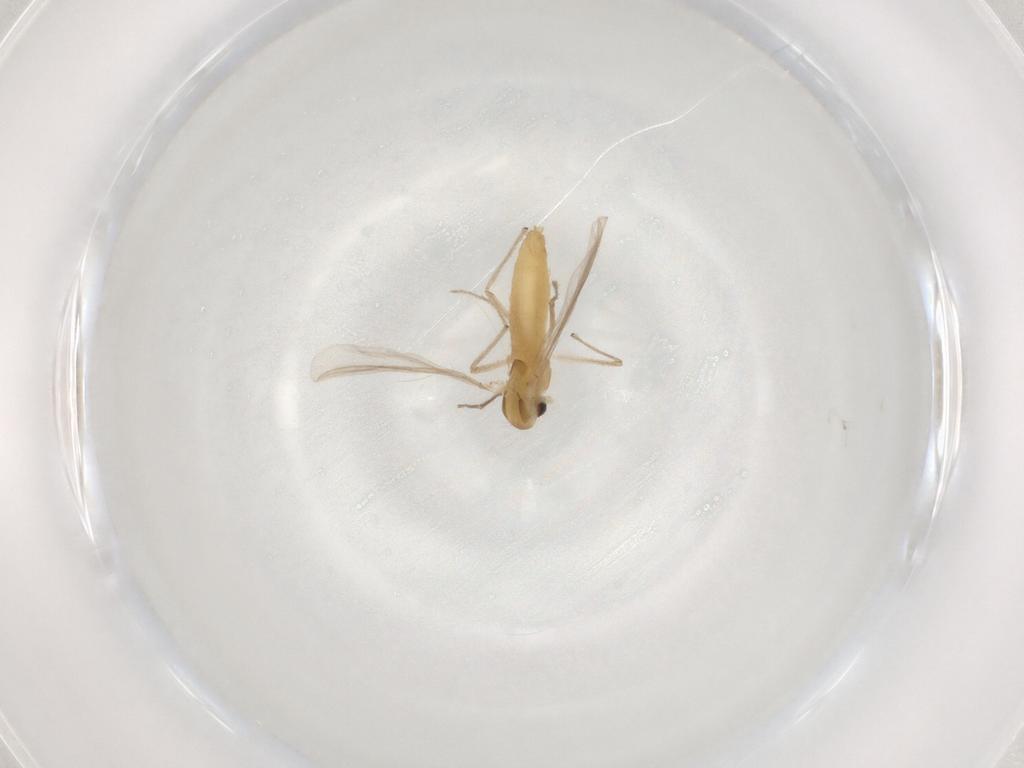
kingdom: Animalia
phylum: Arthropoda
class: Insecta
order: Diptera
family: Chironomidae
